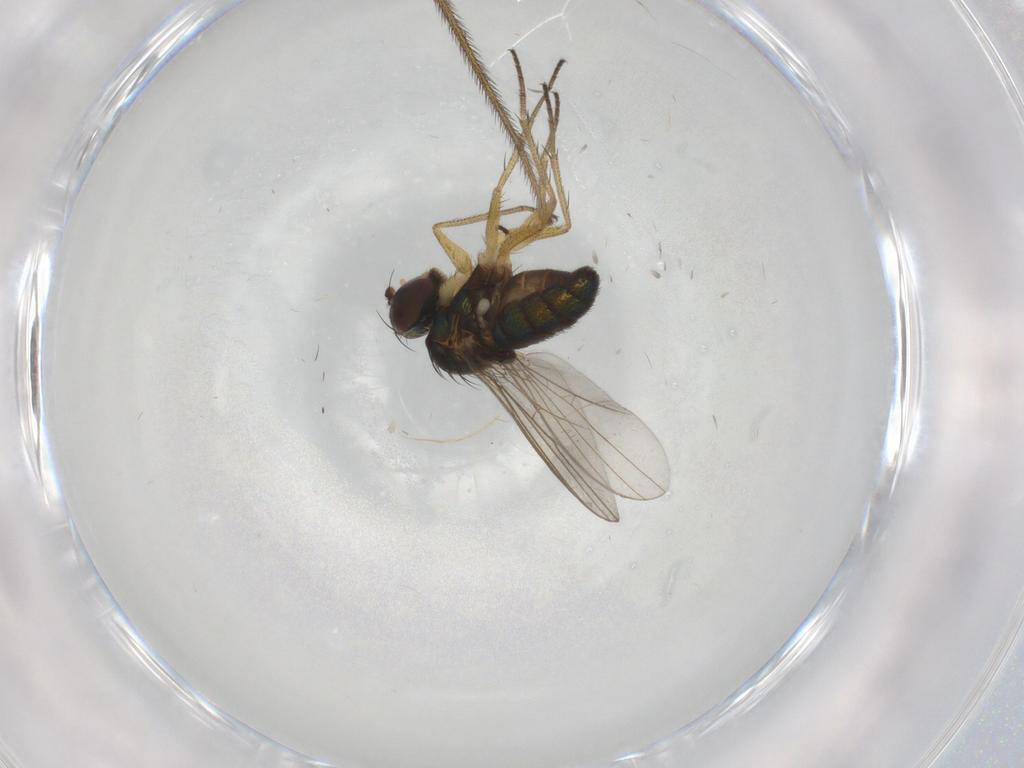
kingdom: Animalia
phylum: Arthropoda
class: Insecta
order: Diptera
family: Limoniidae
